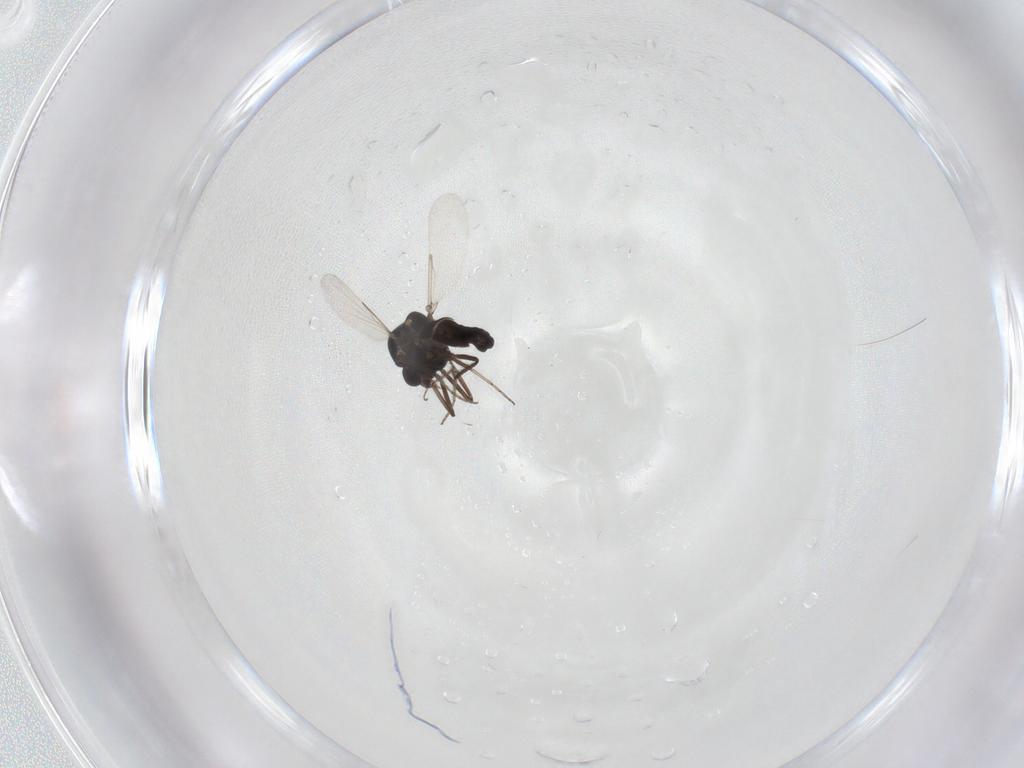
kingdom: Animalia
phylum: Arthropoda
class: Insecta
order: Diptera
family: Ceratopogonidae
